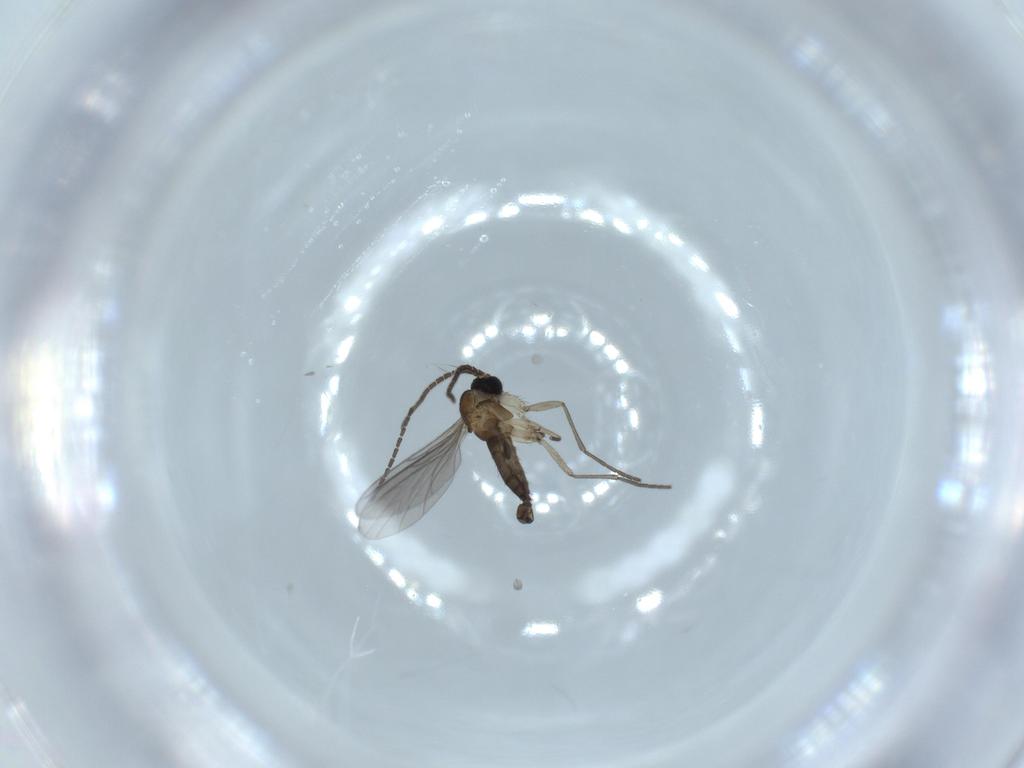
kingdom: Animalia
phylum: Arthropoda
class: Insecta
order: Diptera
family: Sciaridae
